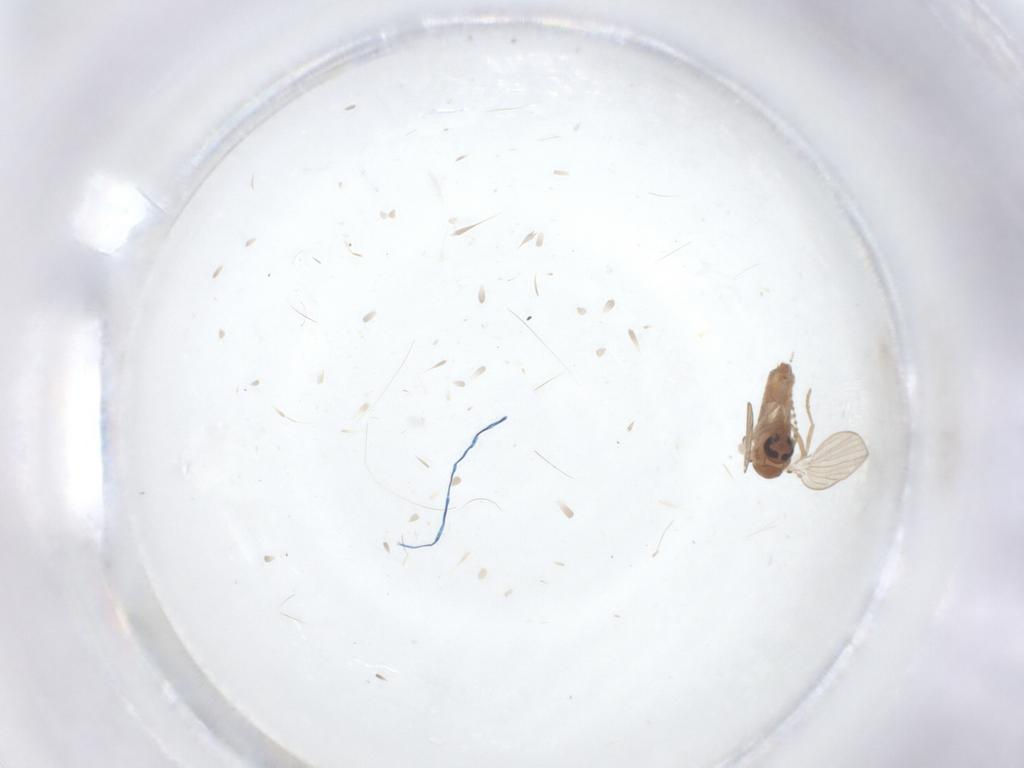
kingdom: Animalia
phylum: Arthropoda
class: Insecta
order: Diptera
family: Psychodidae
